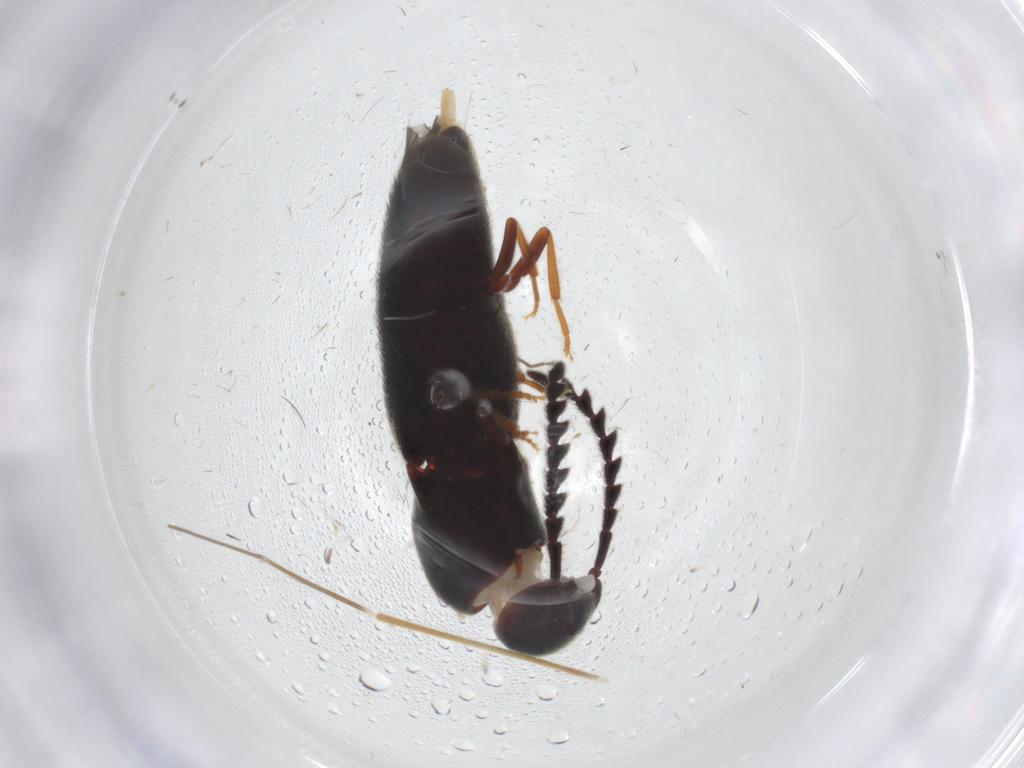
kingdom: Animalia
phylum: Arthropoda
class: Insecta
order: Coleoptera
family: Eucnemidae
